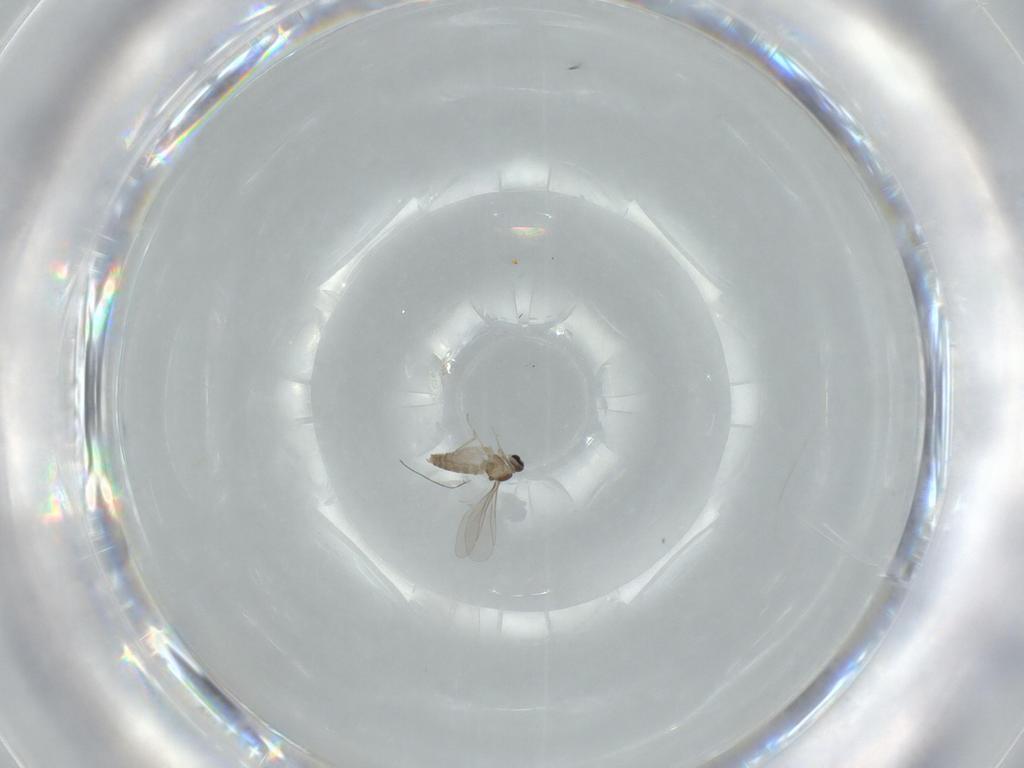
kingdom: Animalia
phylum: Arthropoda
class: Insecta
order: Diptera
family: Cecidomyiidae
